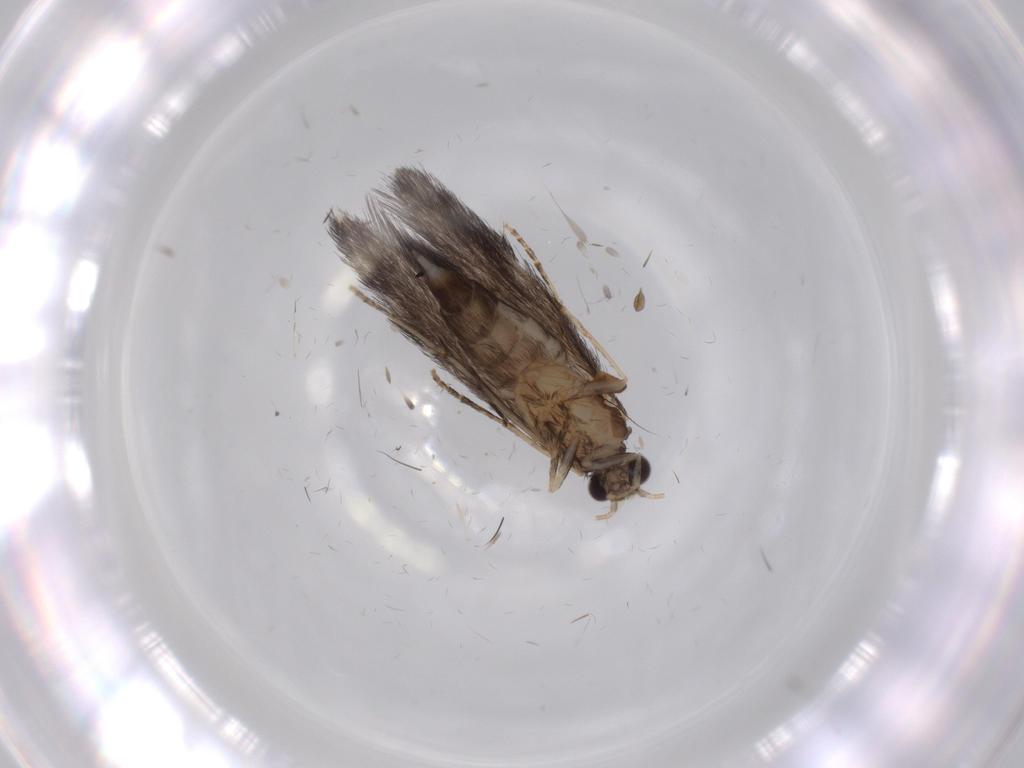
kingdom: Animalia
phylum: Arthropoda
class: Insecta
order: Trichoptera
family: Hydroptilidae
